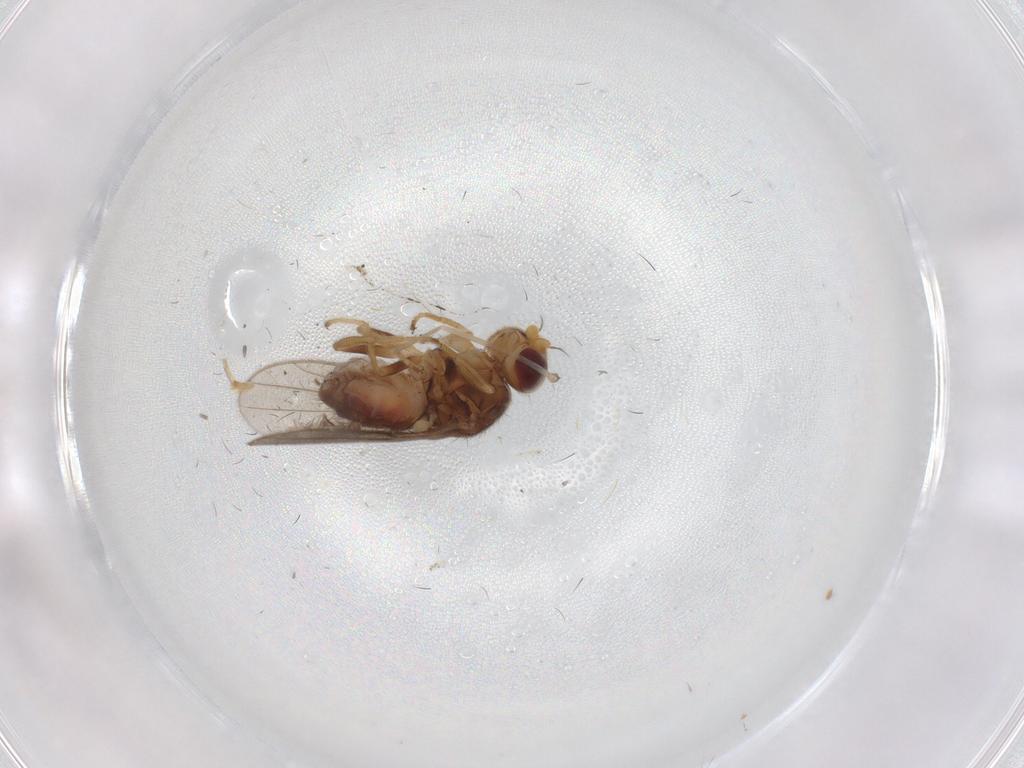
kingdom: Animalia
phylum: Arthropoda
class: Insecta
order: Diptera
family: Chloropidae
